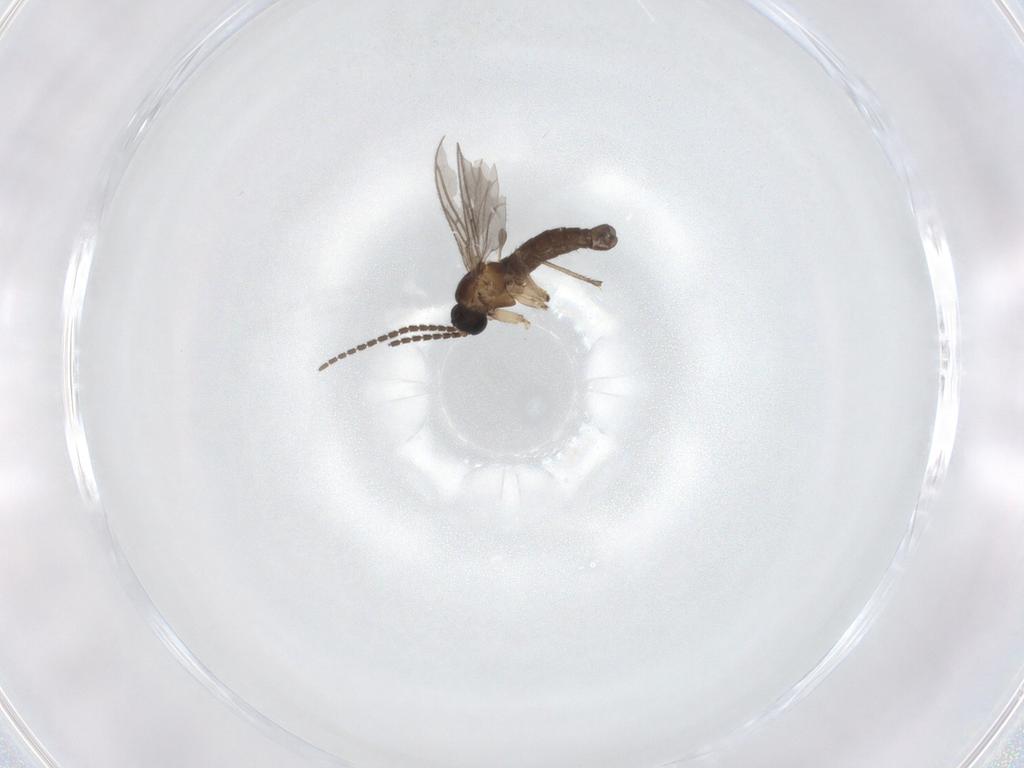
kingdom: Animalia
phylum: Arthropoda
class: Insecta
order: Diptera
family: Sciaridae
